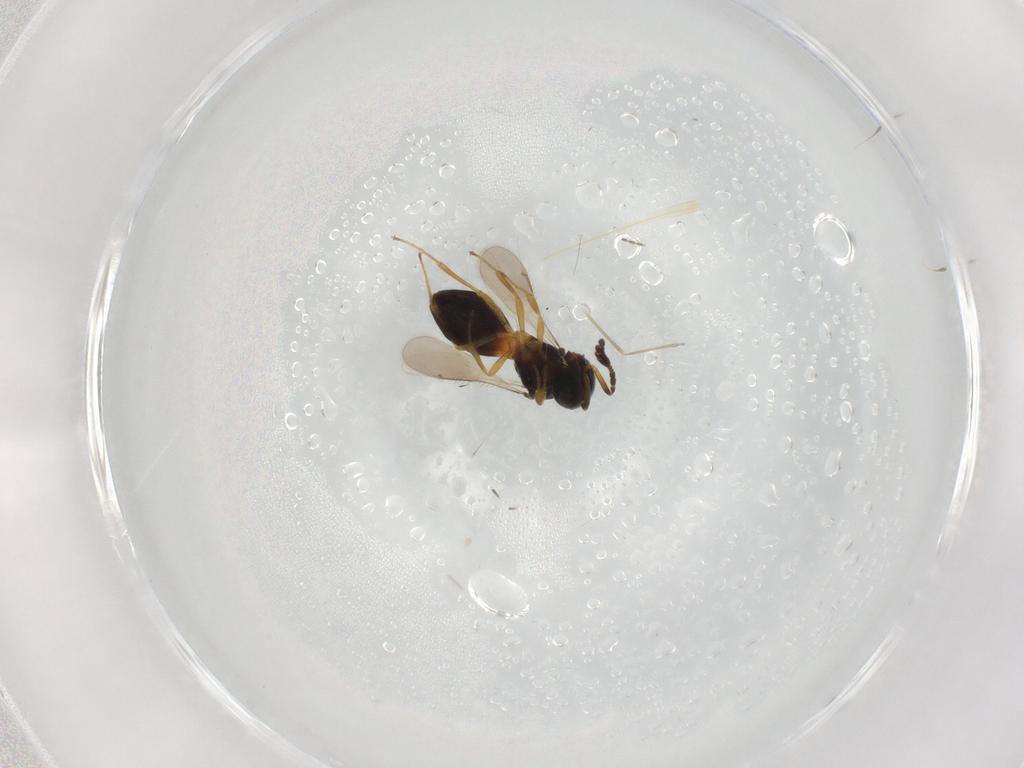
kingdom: Animalia
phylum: Arthropoda
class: Insecta
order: Hymenoptera
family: Scelionidae
